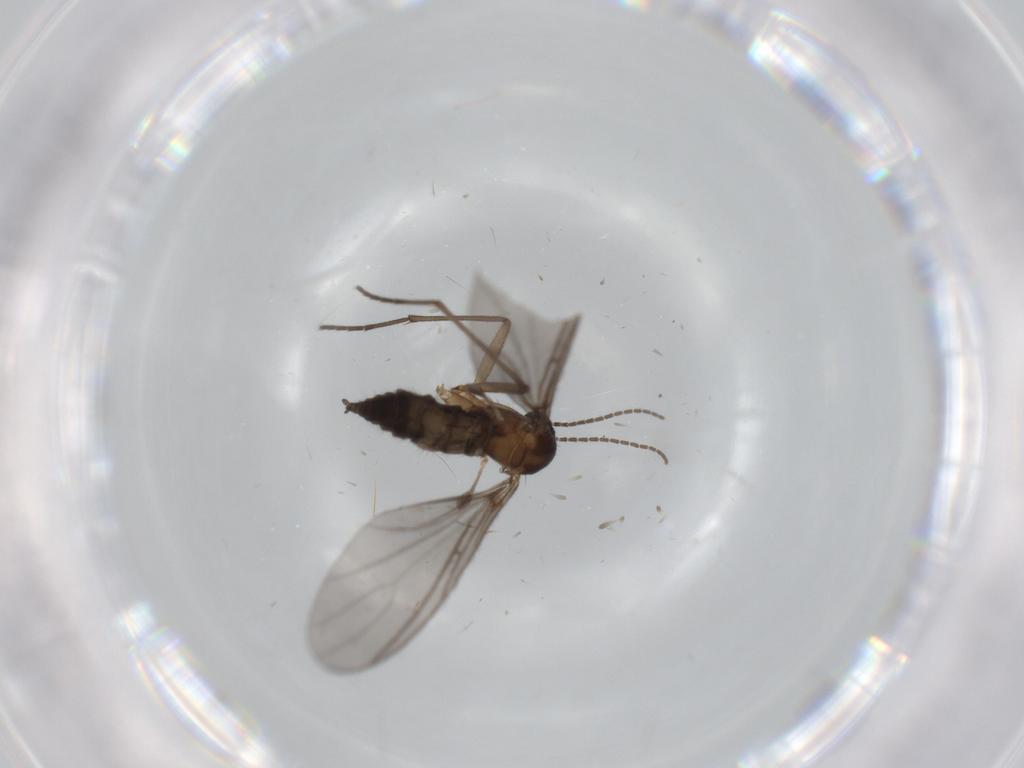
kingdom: Animalia
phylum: Arthropoda
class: Insecta
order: Diptera
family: Sciaridae
